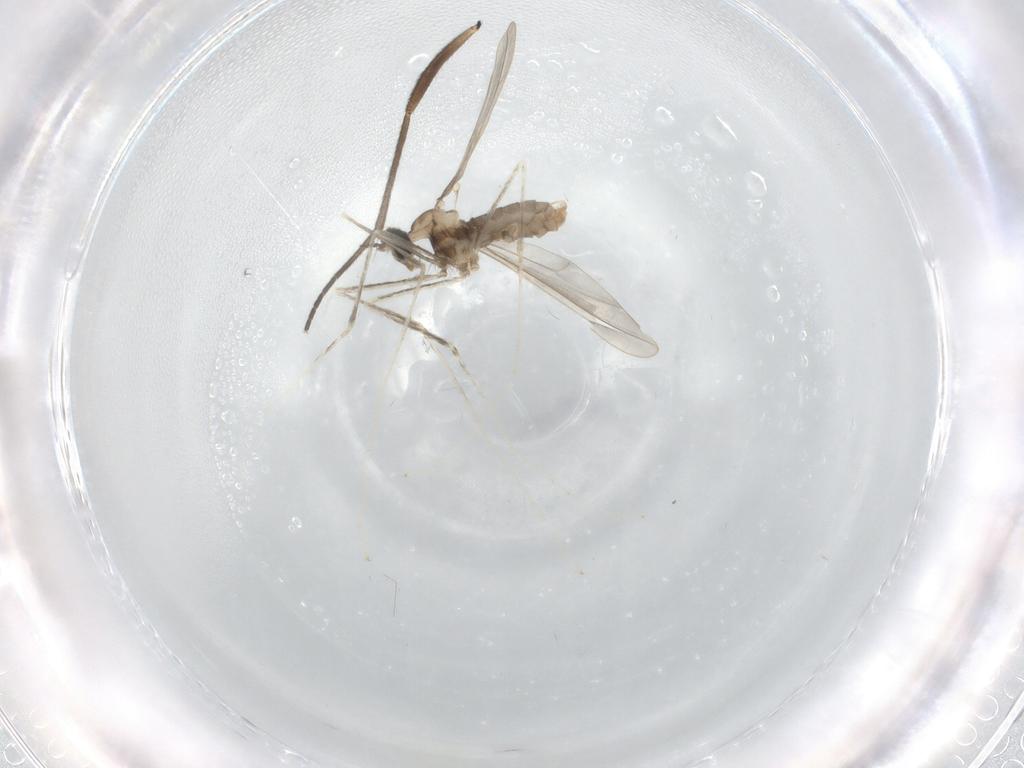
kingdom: Animalia
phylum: Arthropoda
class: Insecta
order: Diptera
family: Cecidomyiidae
